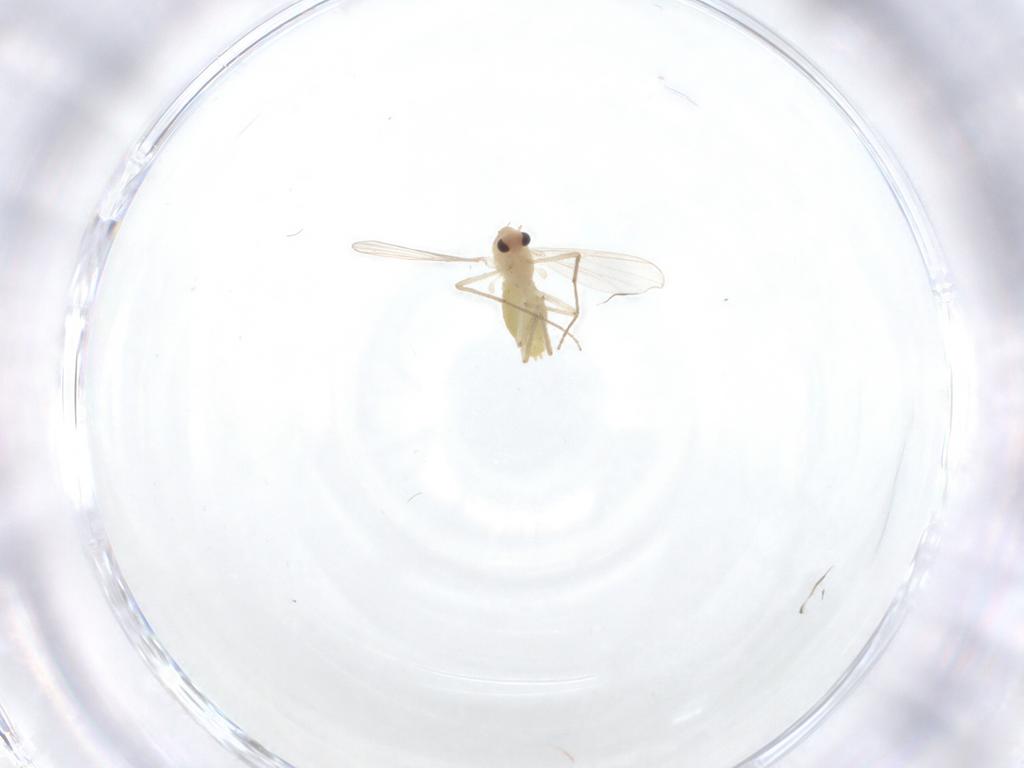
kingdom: Animalia
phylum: Arthropoda
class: Insecta
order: Diptera
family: Chironomidae
